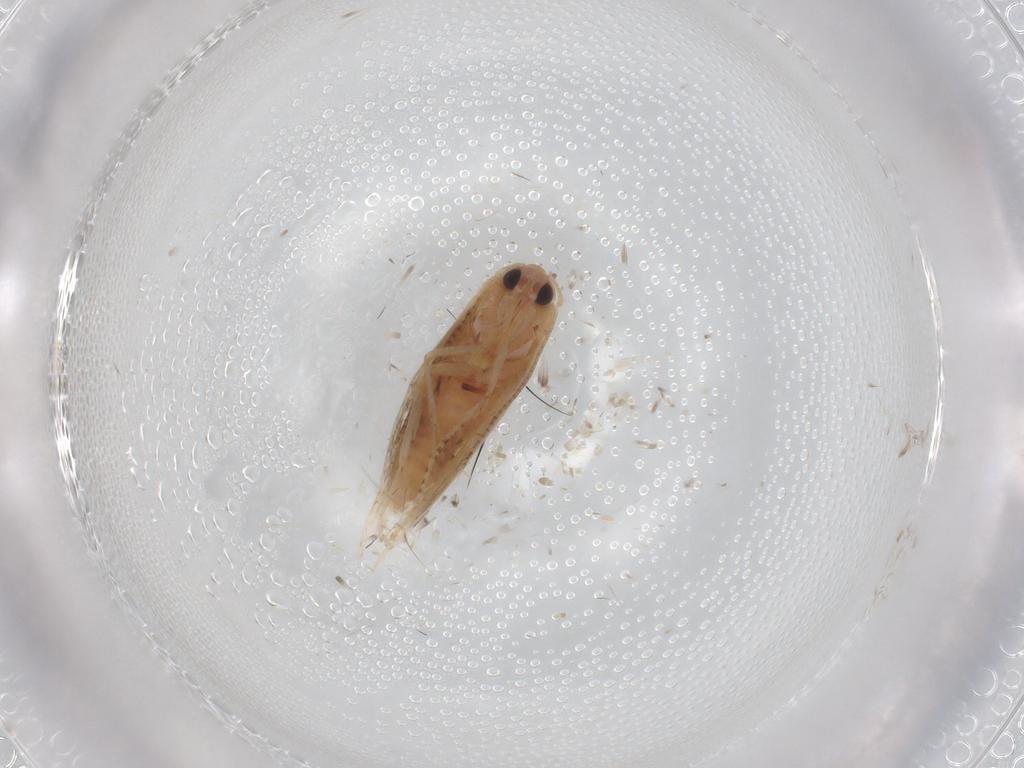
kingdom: Animalia
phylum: Arthropoda
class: Insecta
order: Lepidoptera
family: Bucculatricidae
